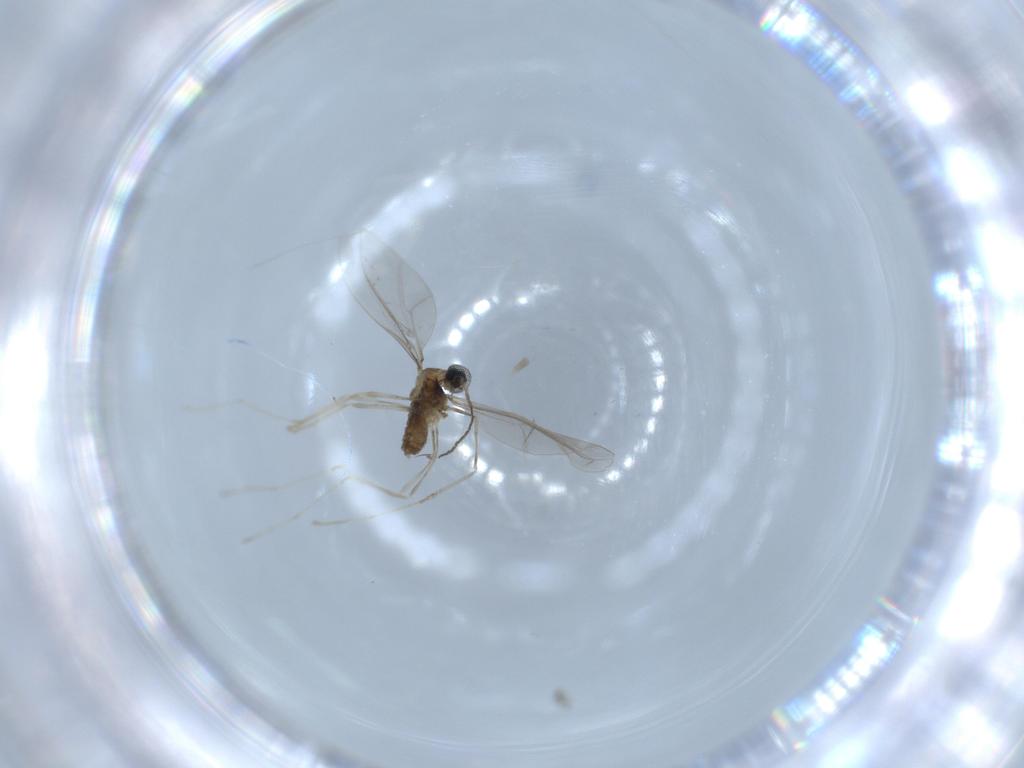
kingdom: Animalia
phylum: Arthropoda
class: Insecta
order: Diptera
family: Cecidomyiidae
